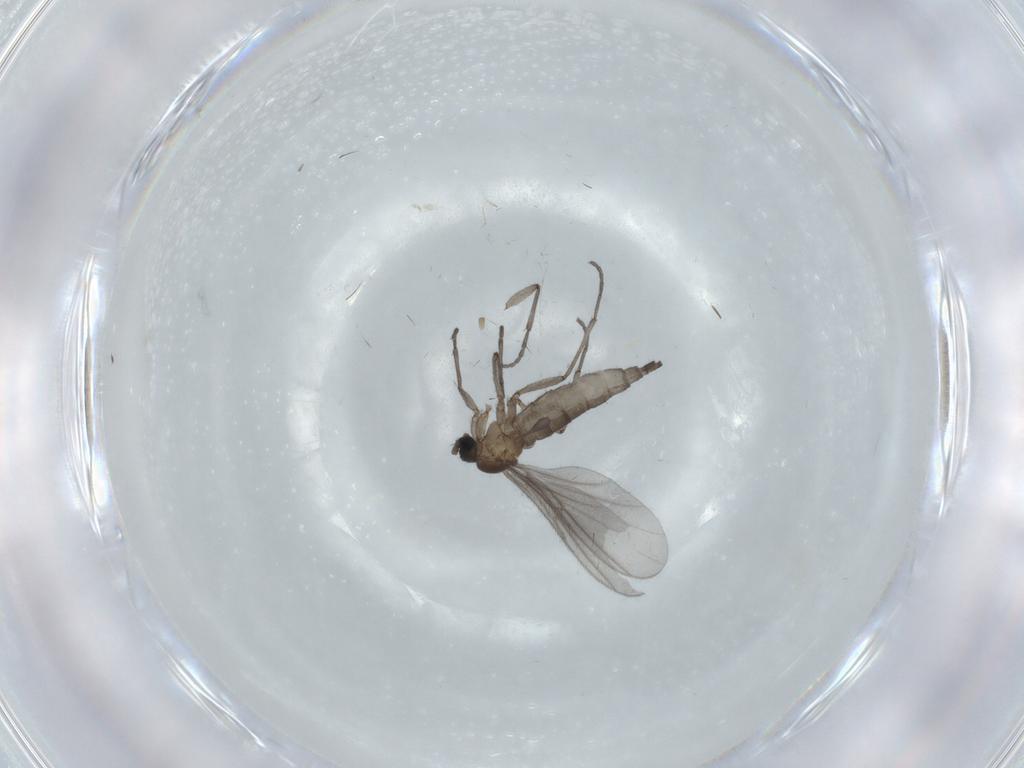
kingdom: Animalia
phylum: Arthropoda
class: Insecta
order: Diptera
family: Sciaridae
